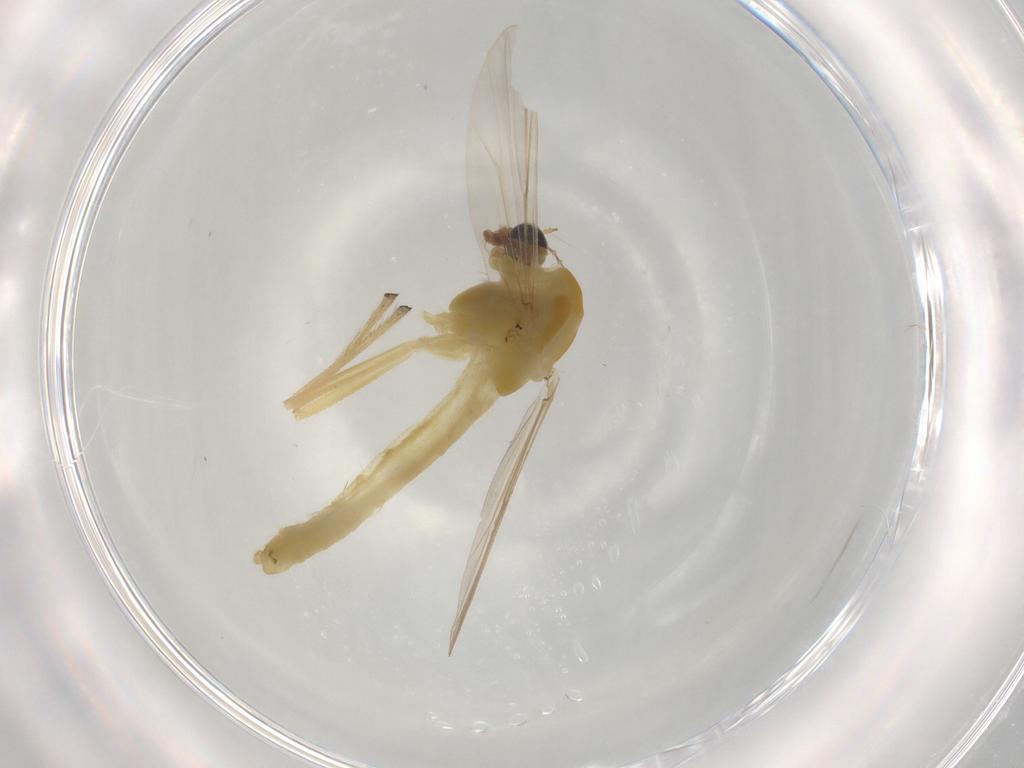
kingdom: Animalia
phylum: Arthropoda
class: Insecta
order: Diptera
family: Chironomidae
